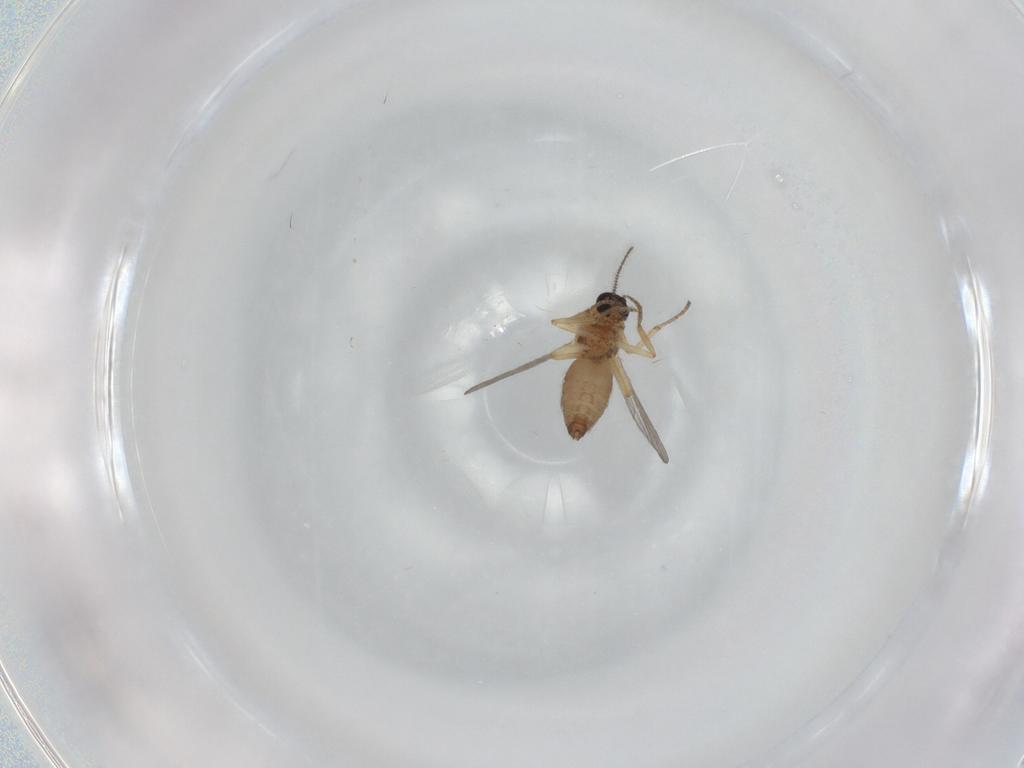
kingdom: Animalia
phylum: Arthropoda
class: Insecta
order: Diptera
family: Ceratopogonidae
